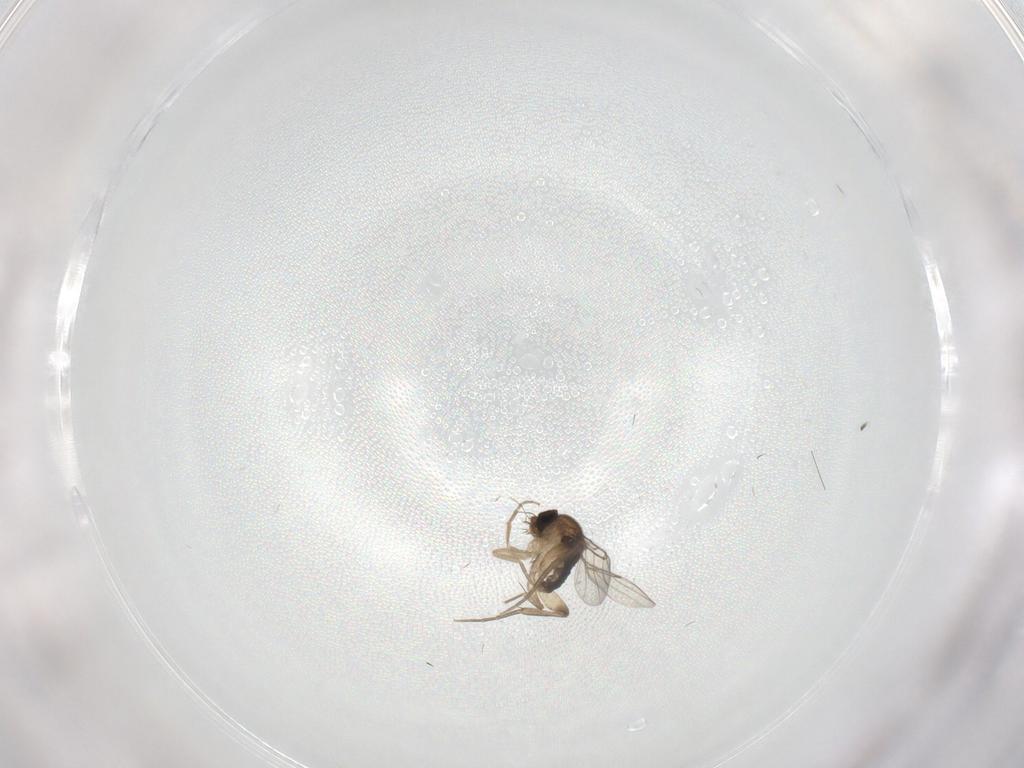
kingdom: Animalia
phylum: Arthropoda
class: Insecta
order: Diptera
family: Phoridae
